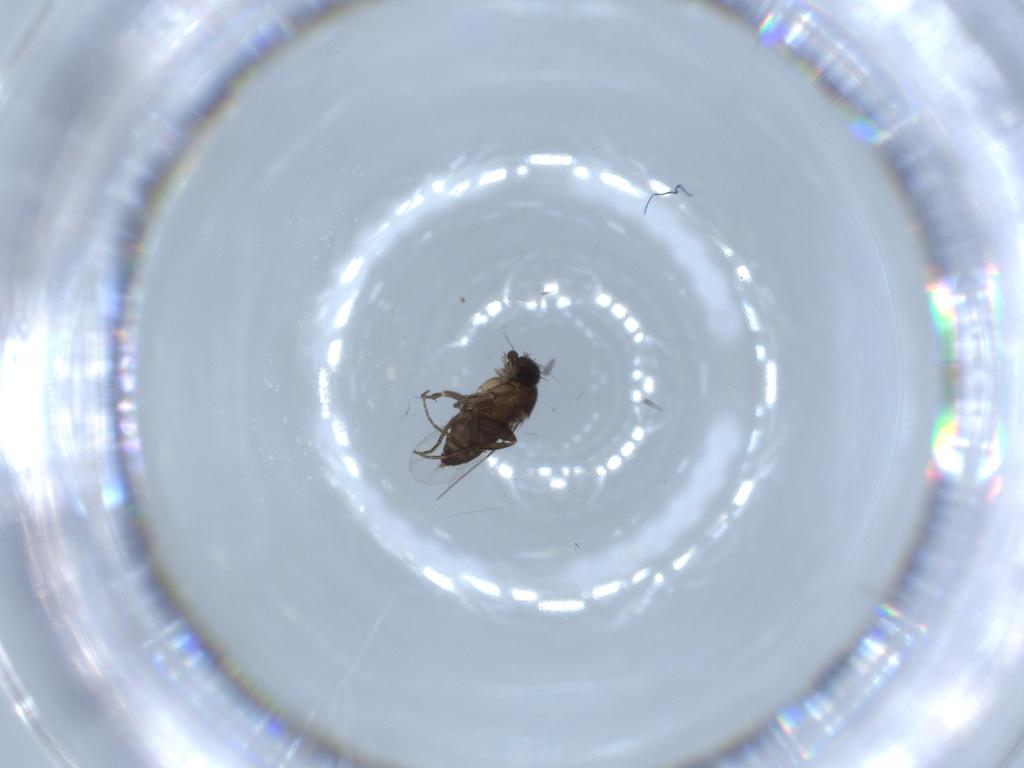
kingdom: Animalia
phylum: Arthropoda
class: Insecta
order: Diptera
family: Phoridae
